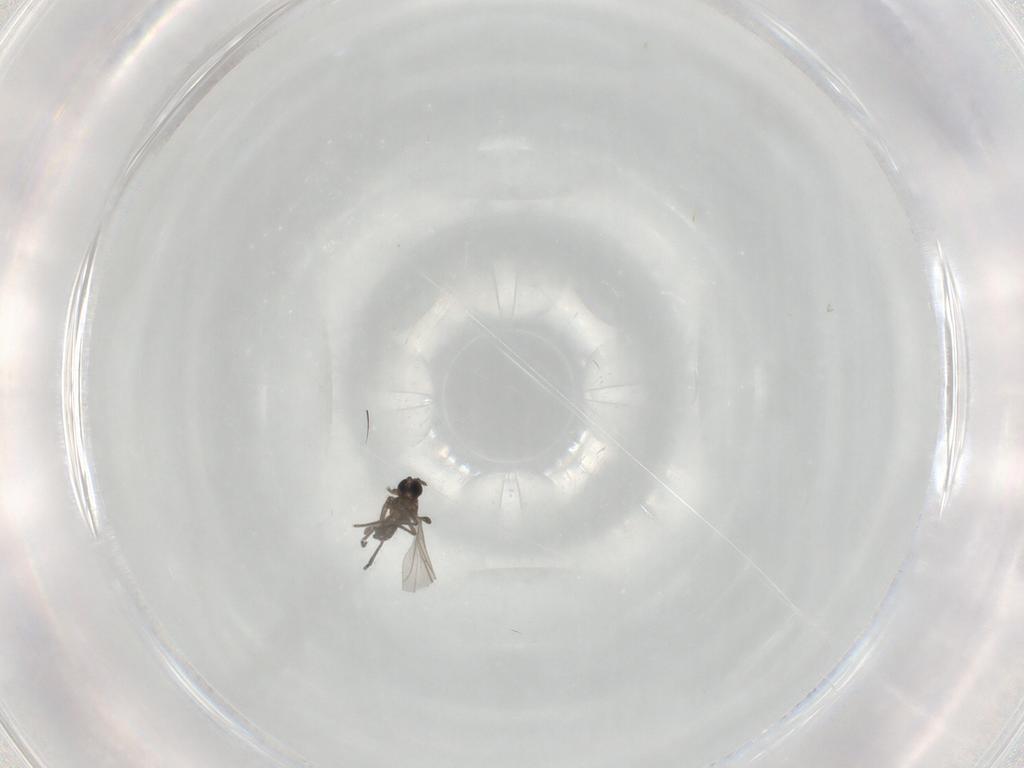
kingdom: Animalia
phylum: Arthropoda
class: Insecta
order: Diptera
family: Sciaridae
